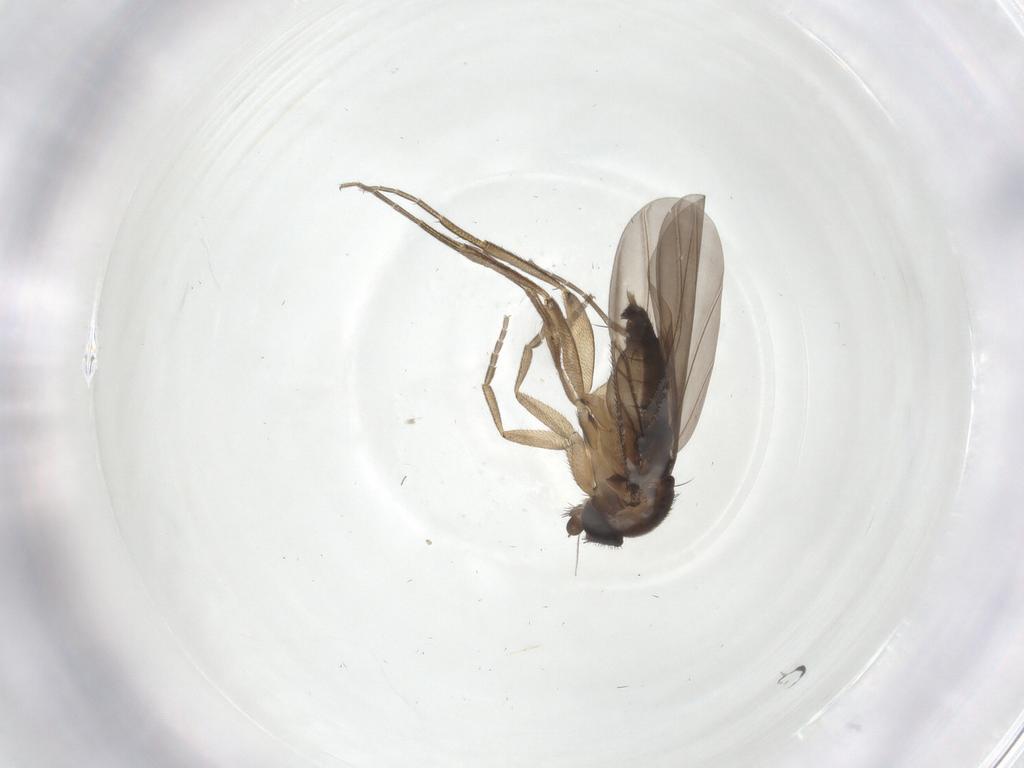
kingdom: Animalia
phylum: Arthropoda
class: Insecta
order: Diptera
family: Phoridae
